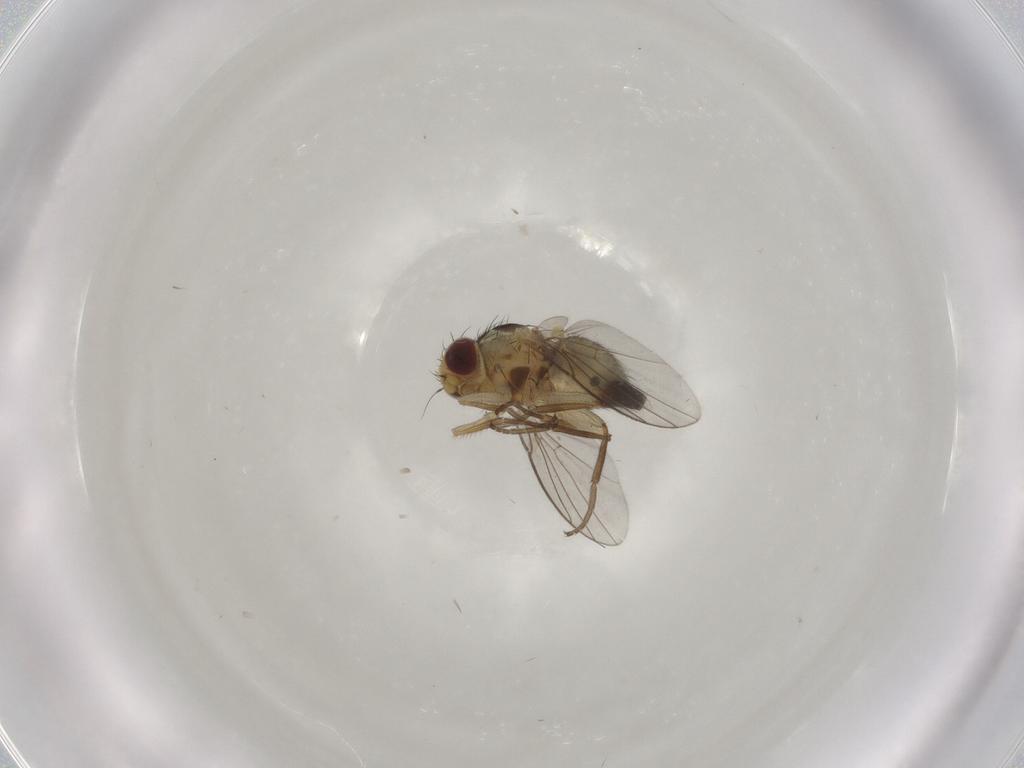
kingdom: Animalia
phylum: Arthropoda
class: Insecta
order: Diptera
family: Agromyzidae
